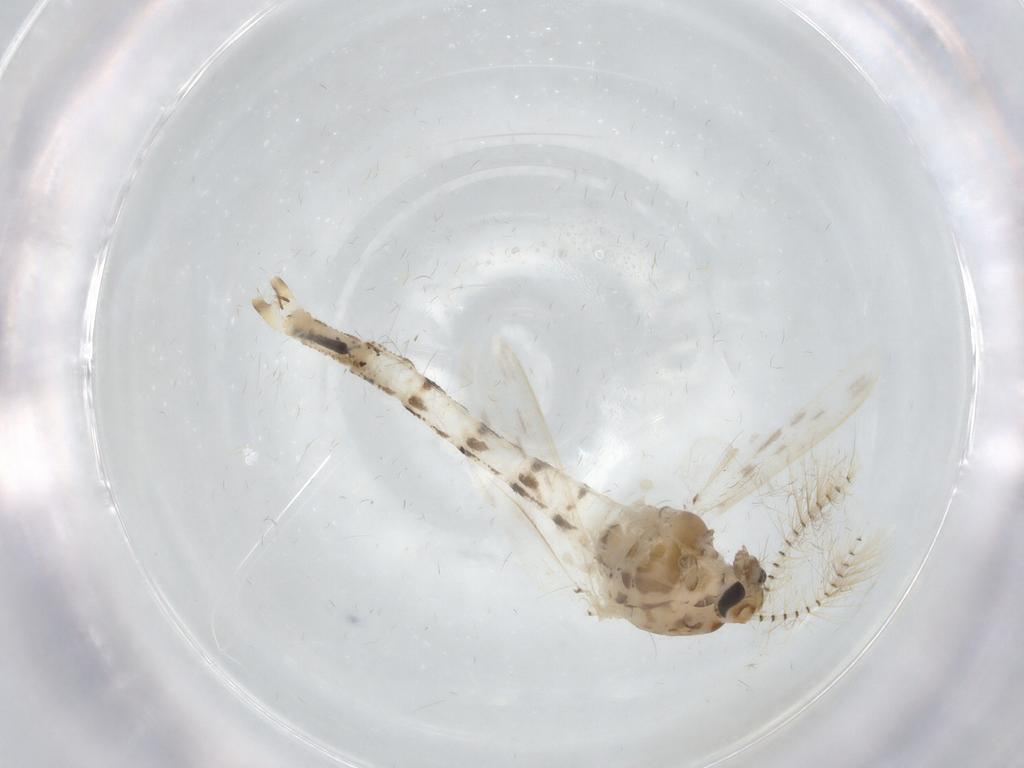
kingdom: Animalia
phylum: Arthropoda
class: Insecta
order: Diptera
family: Chaoboridae
